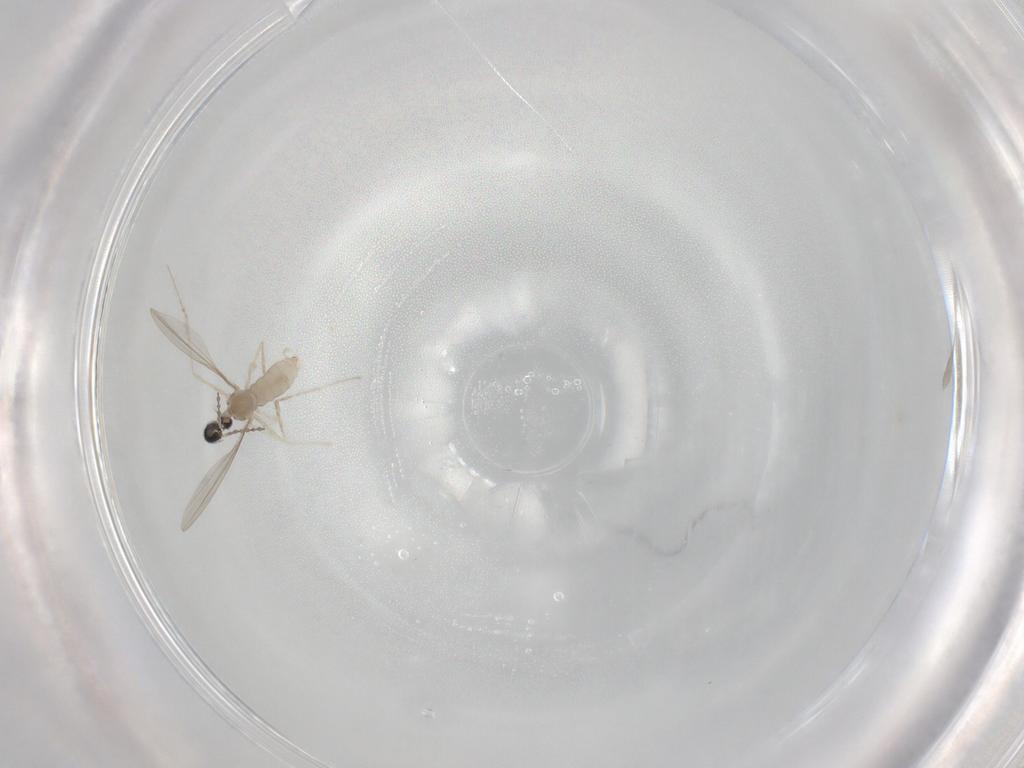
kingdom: Animalia
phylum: Arthropoda
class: Insecta
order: Diptera
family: Cecidomyiidae
